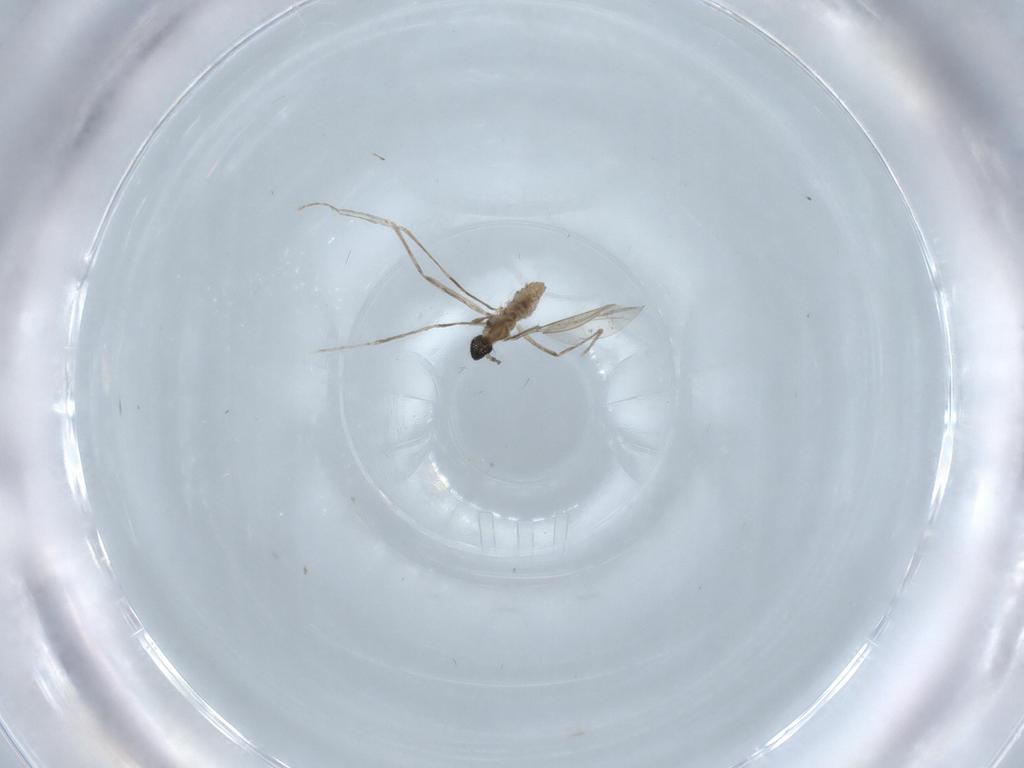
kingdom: Animalia
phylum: Arthropoda
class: Insecta
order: Diptera
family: Cecidomyiidae
